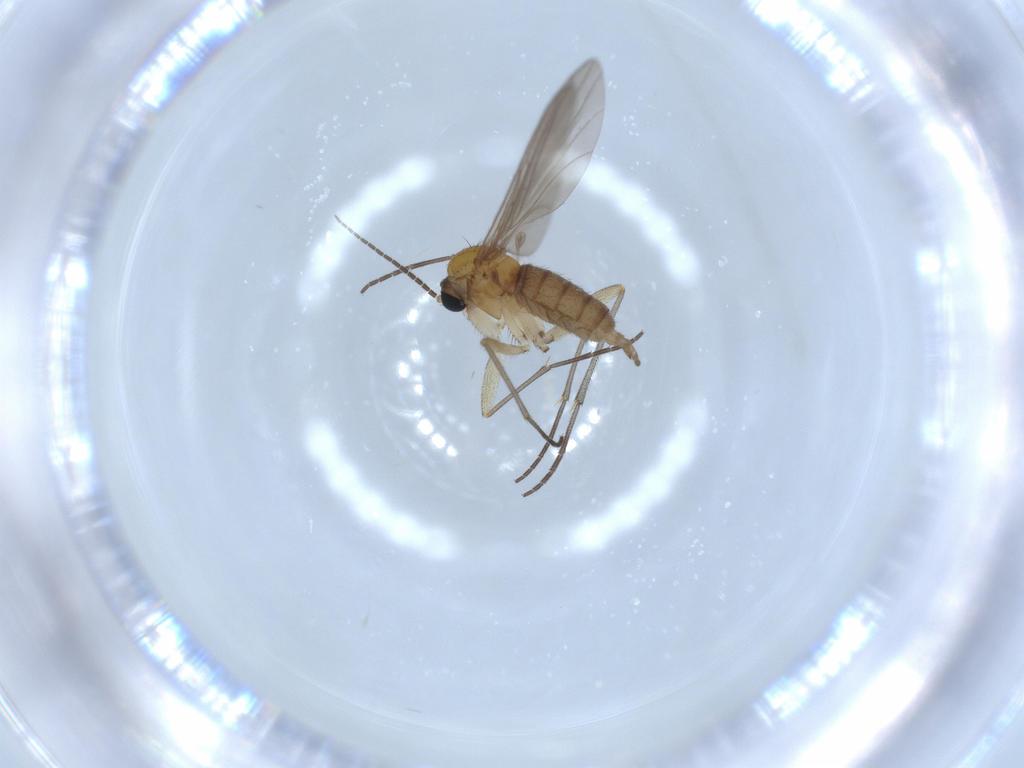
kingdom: Animalia
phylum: Arthropoda
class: Insecta
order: Diptera
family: Sciaridae
